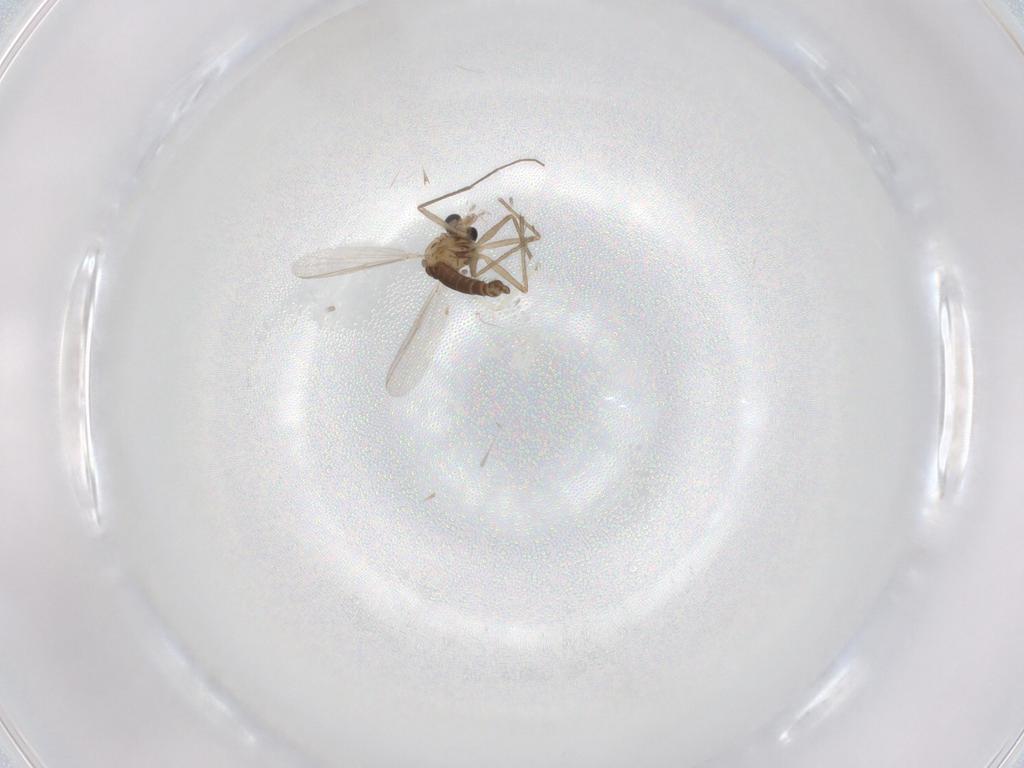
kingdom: Animalia
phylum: Arthropoda
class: Insecta
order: Diptera
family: Chironomidae
